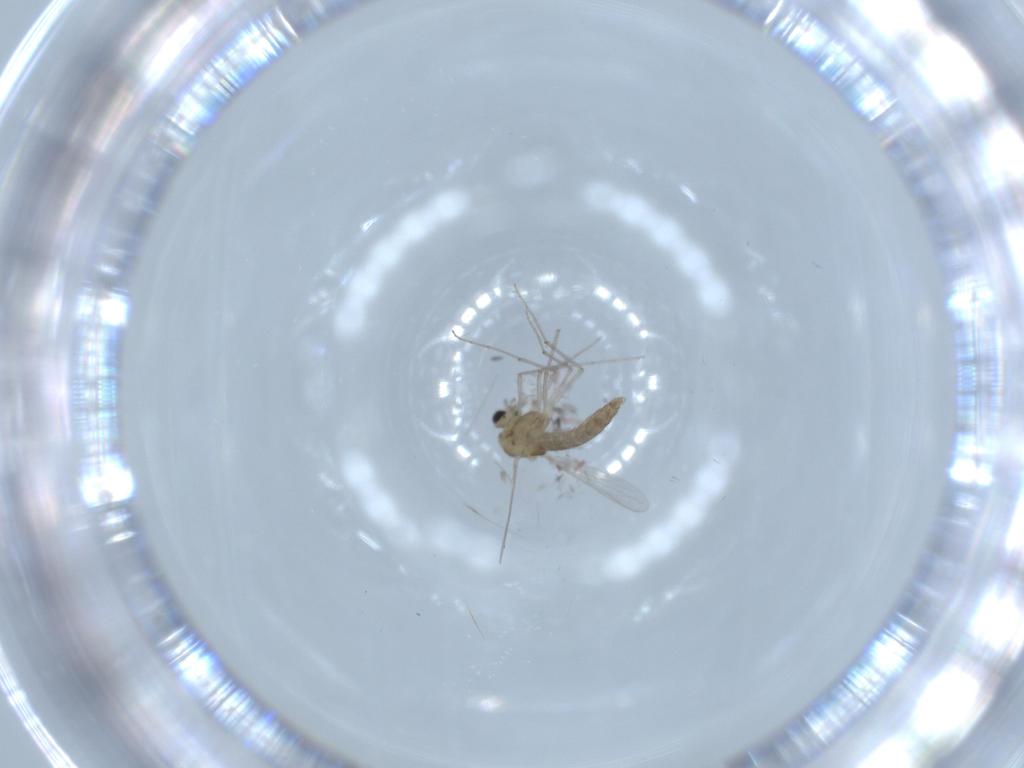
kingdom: Animalia
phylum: Arthropoda
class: Insecta
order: Diptera
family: Chironomidae
